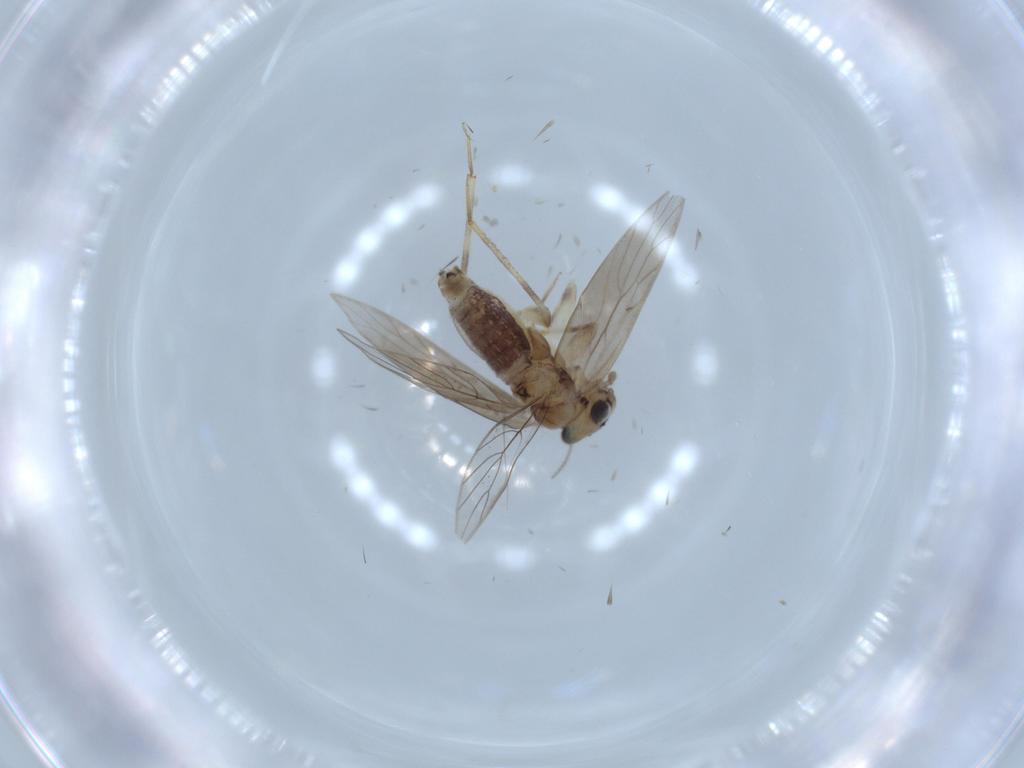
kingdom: Animalia
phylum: Arthropoda
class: Insecta
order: Psocodea
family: Lepidopsocidae
